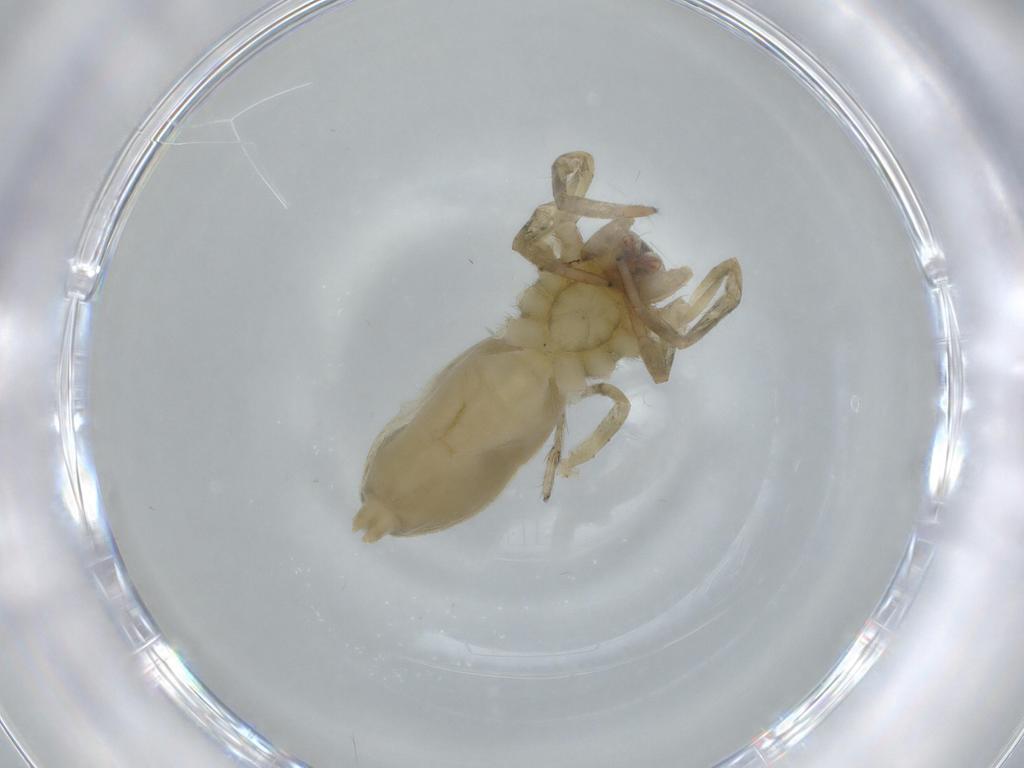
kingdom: Animalia
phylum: Arthropoda
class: Arachnida
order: Araneae
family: Anyphaenidae
